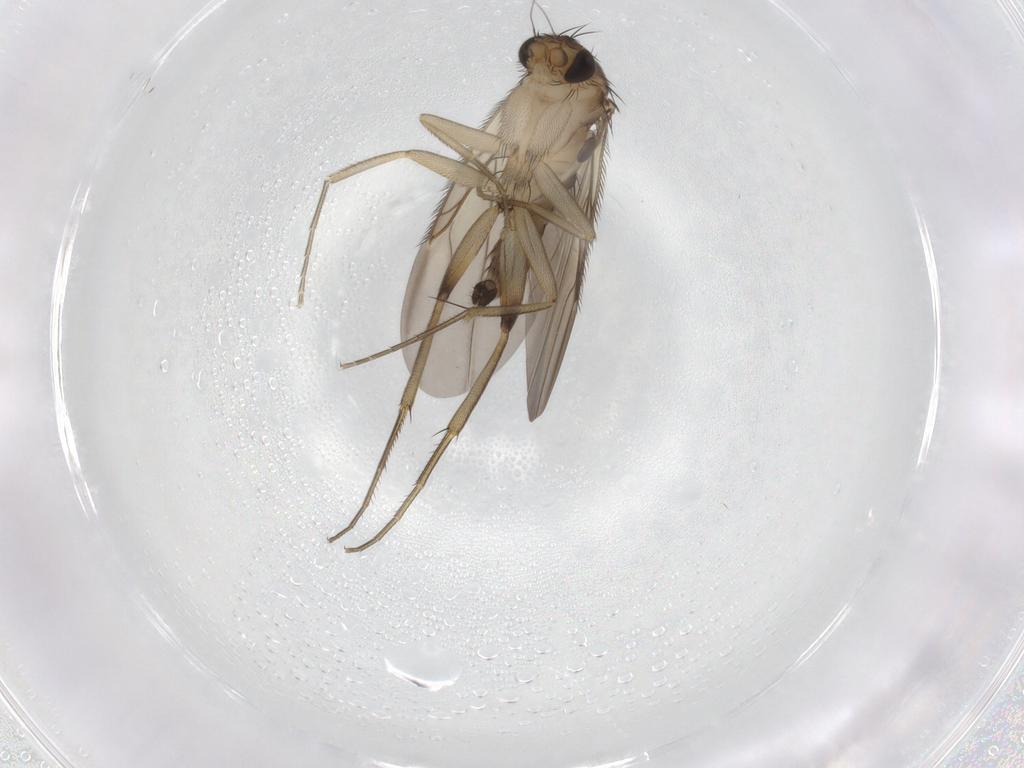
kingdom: Animalia
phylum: Arthropoda
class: Insecta
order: Diptera
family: Phoridae
